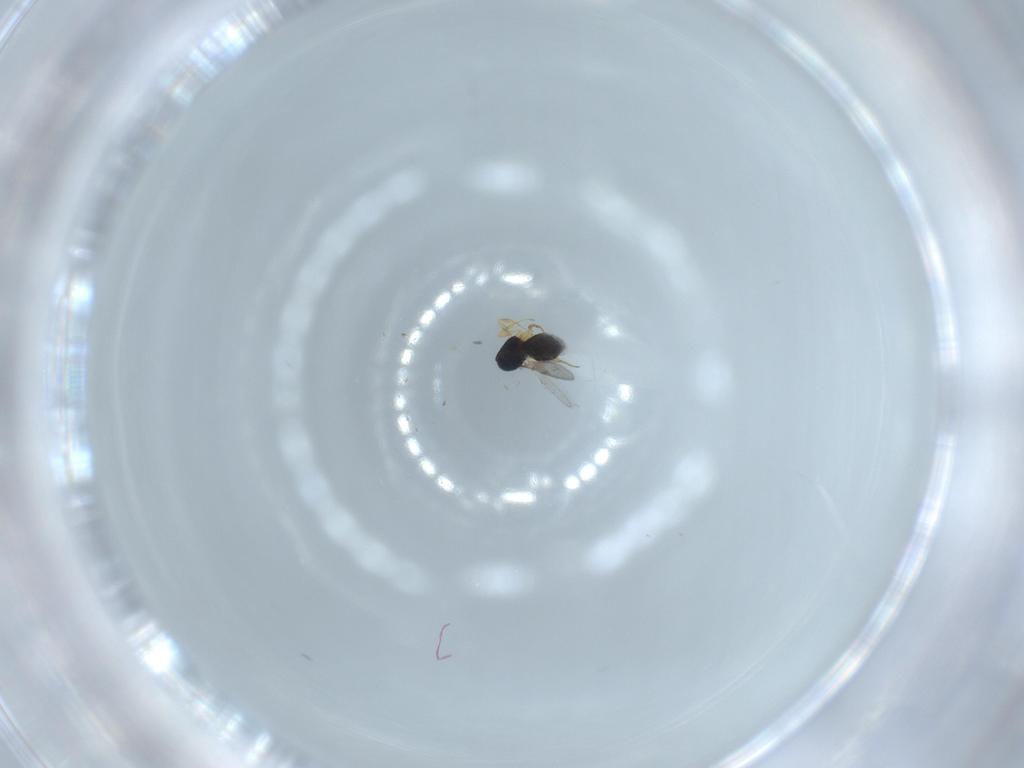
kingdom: Animalia
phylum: Arthropoda
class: Insecta
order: Hymenoptera
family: Scelionidae
